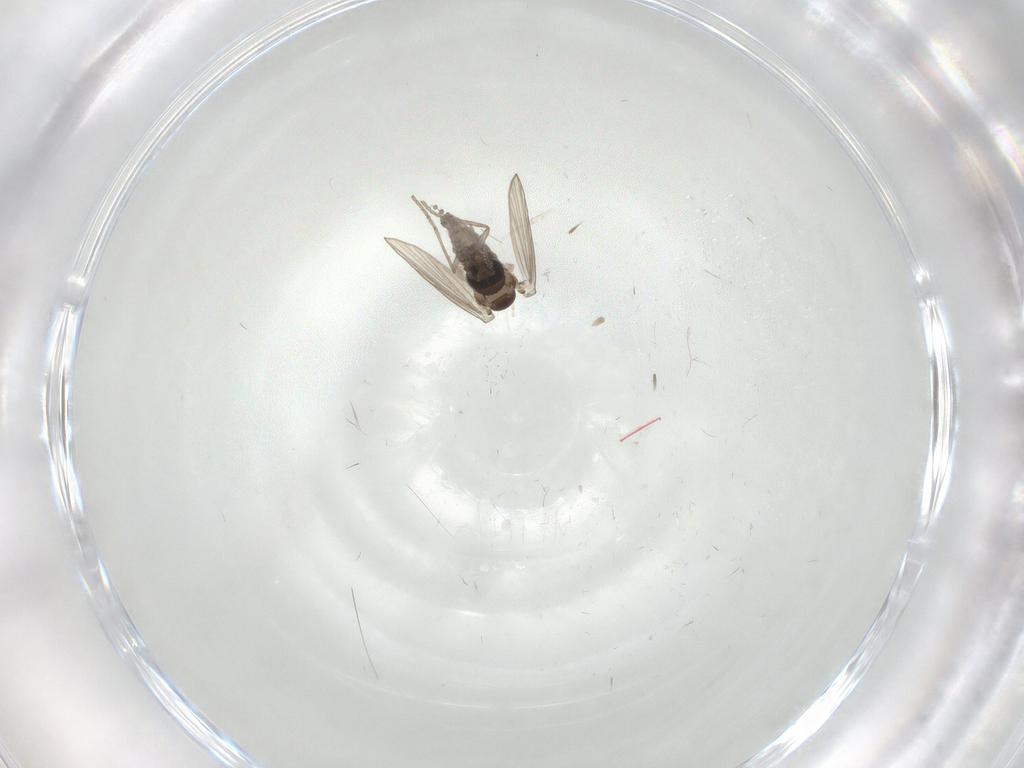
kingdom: Animalia
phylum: Arthropoda
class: Insecta
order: Diptera
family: Psychodidae
